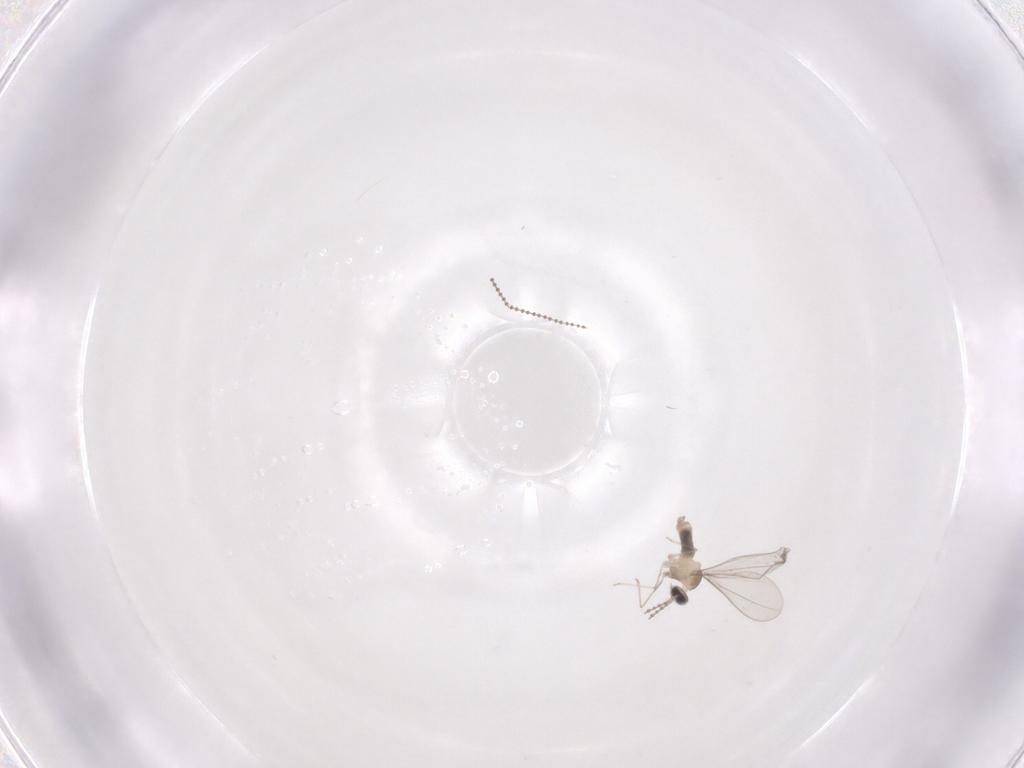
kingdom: Animalia
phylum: Arthropoda
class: Insecta
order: Diptera
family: Cecidomyiidae
